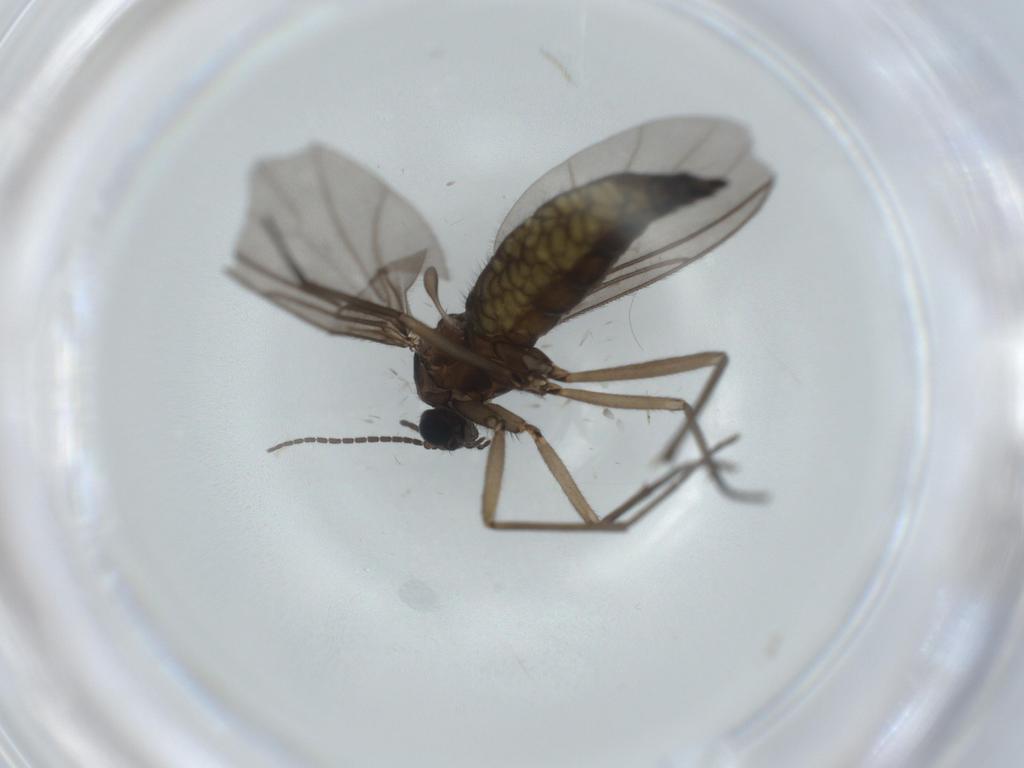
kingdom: Animalia
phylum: Arthropoda
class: Insecta
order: Diptera
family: Sciaridae
